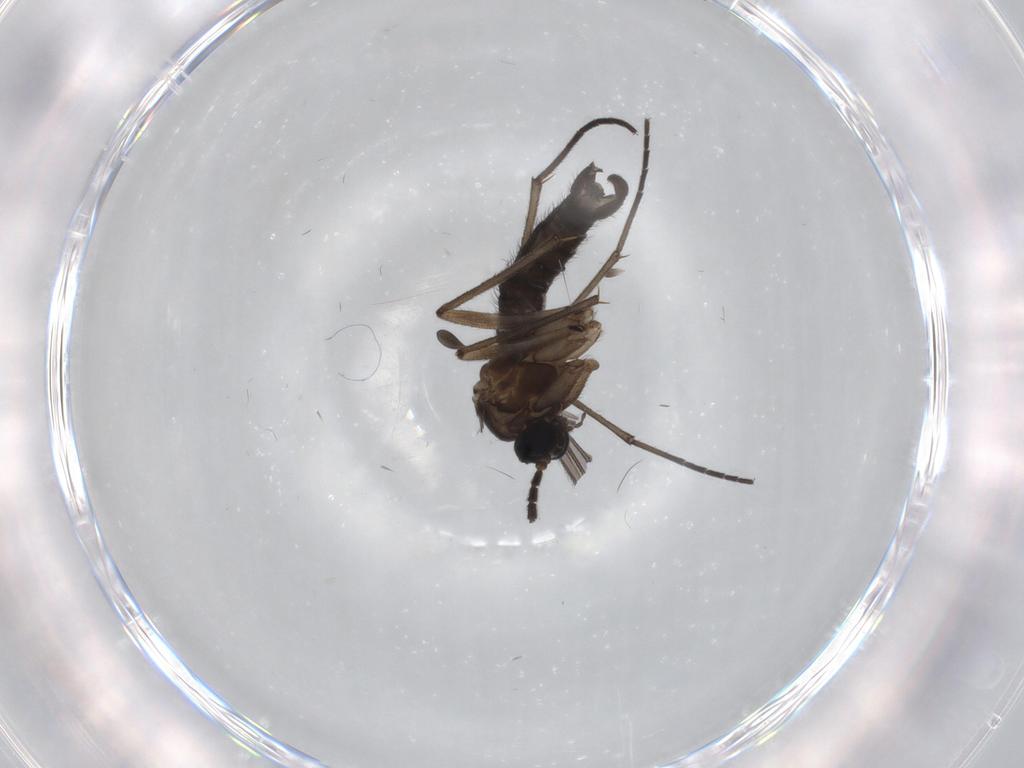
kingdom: Animalia
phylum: Arthropoda
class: Insecta
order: Diptera
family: Sciaridae
